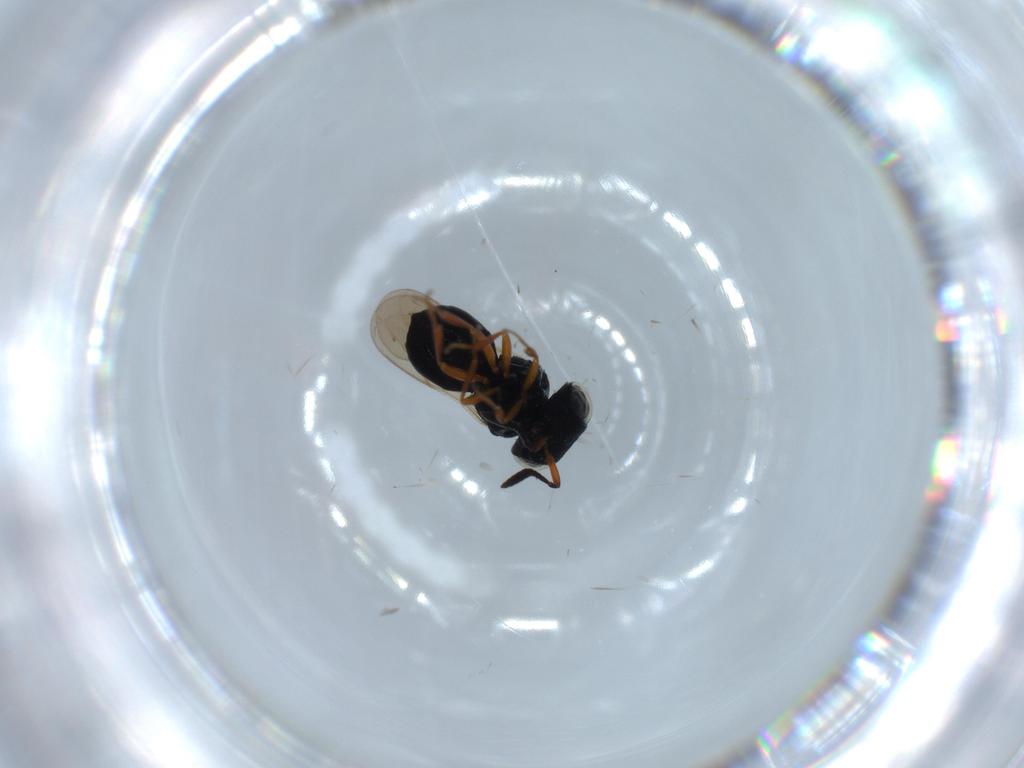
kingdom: Animalia
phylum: Arthropoda
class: Insecta
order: Hymenoptera
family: Scelionidae
